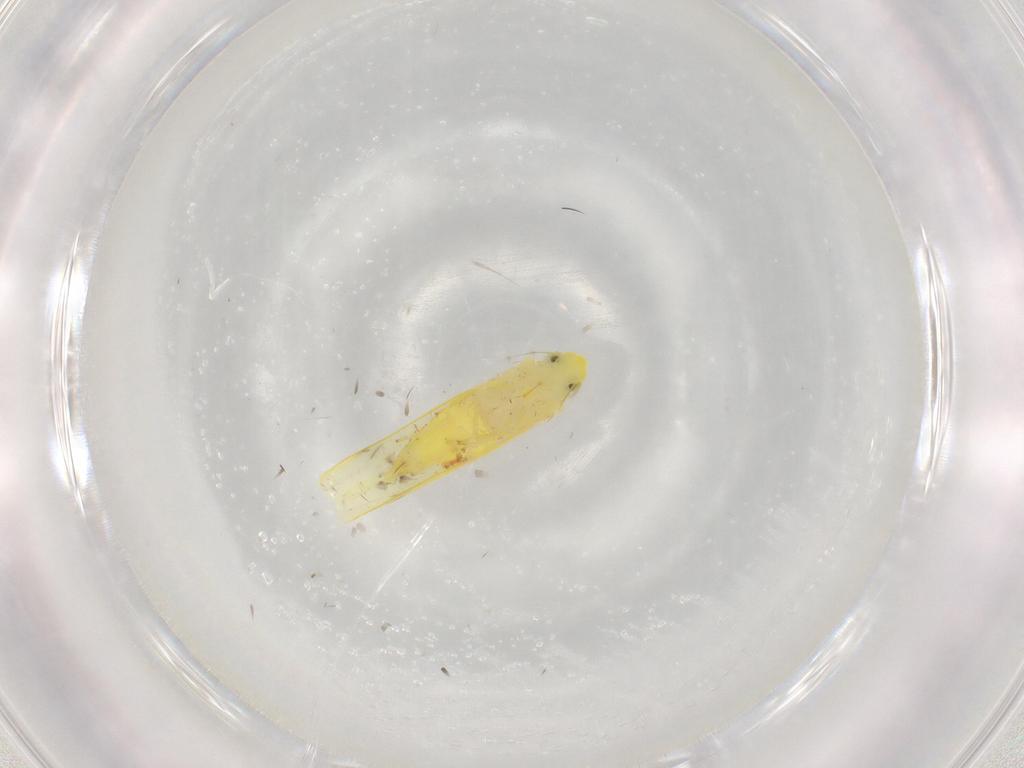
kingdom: Animalia
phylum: Arthropoda
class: Insecta
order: Hemiptera
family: Cicadellidae
